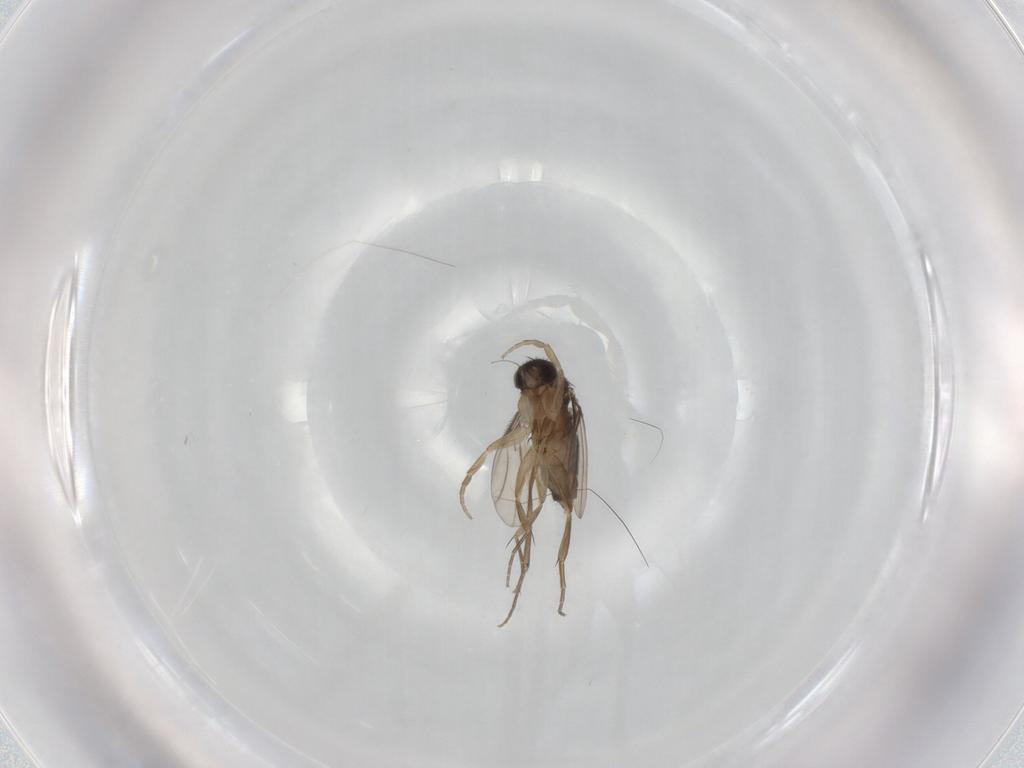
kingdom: Animalia
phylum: Arthropoda
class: Insecta
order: Diptera
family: Phoridae
